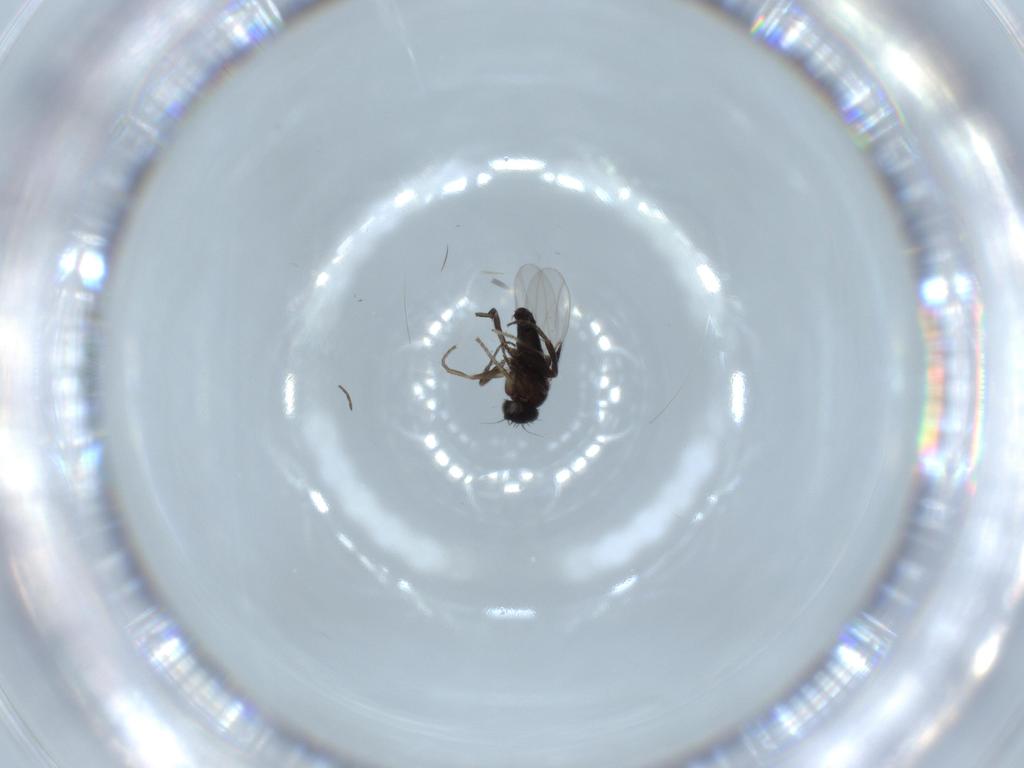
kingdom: Animalia
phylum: Arthropoda
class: Insecta
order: Diptera
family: Phoridae
